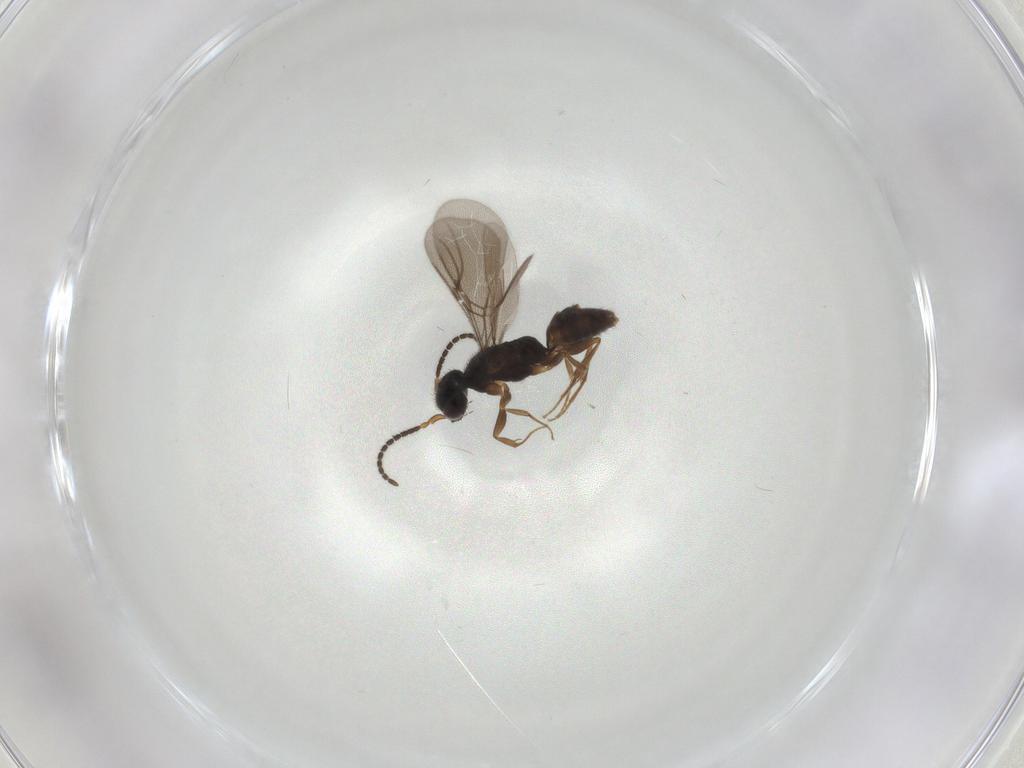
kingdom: Animalia
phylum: Arthropoda
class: Insecta
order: Hymenoptera
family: Bethylidae
